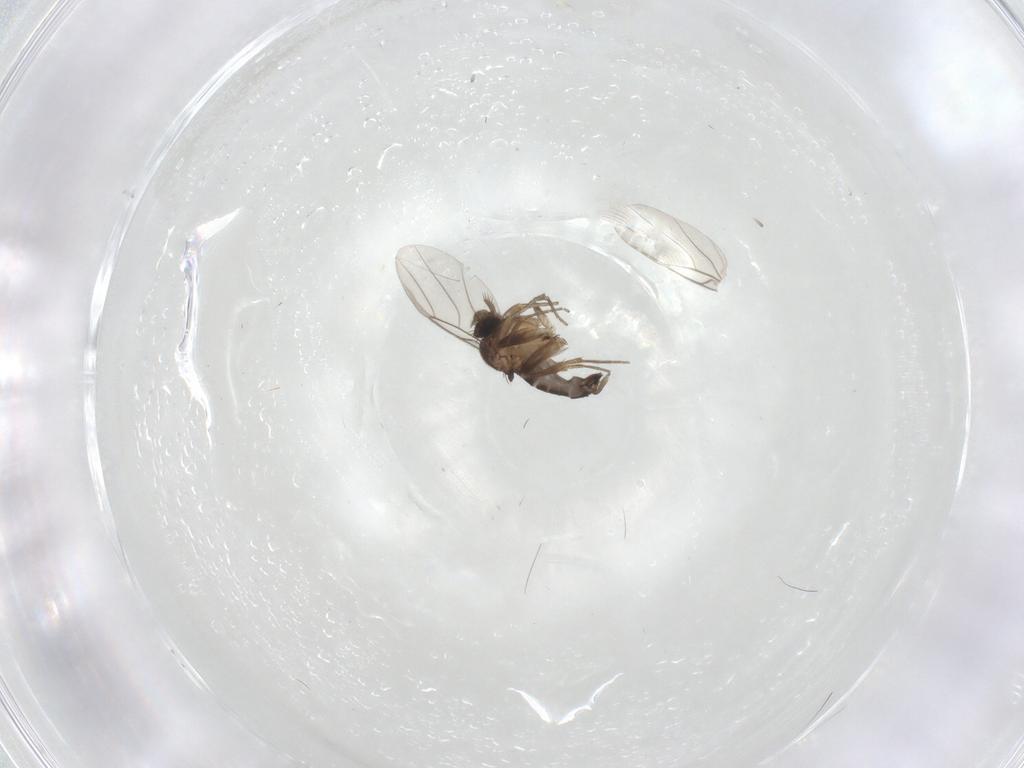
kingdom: Animalia
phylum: Arthropoda
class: Insecta
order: Diptera
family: Phoridae
